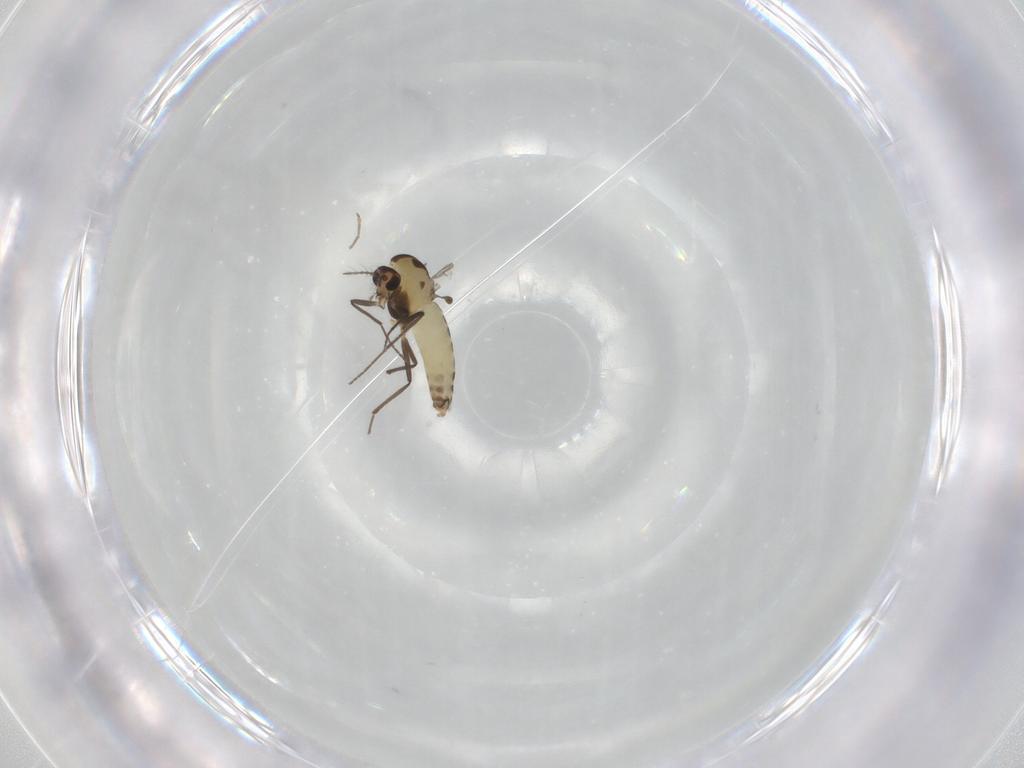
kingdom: Animalia
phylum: Arthropoda
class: Insecta
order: Diptera
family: Chironomidae
